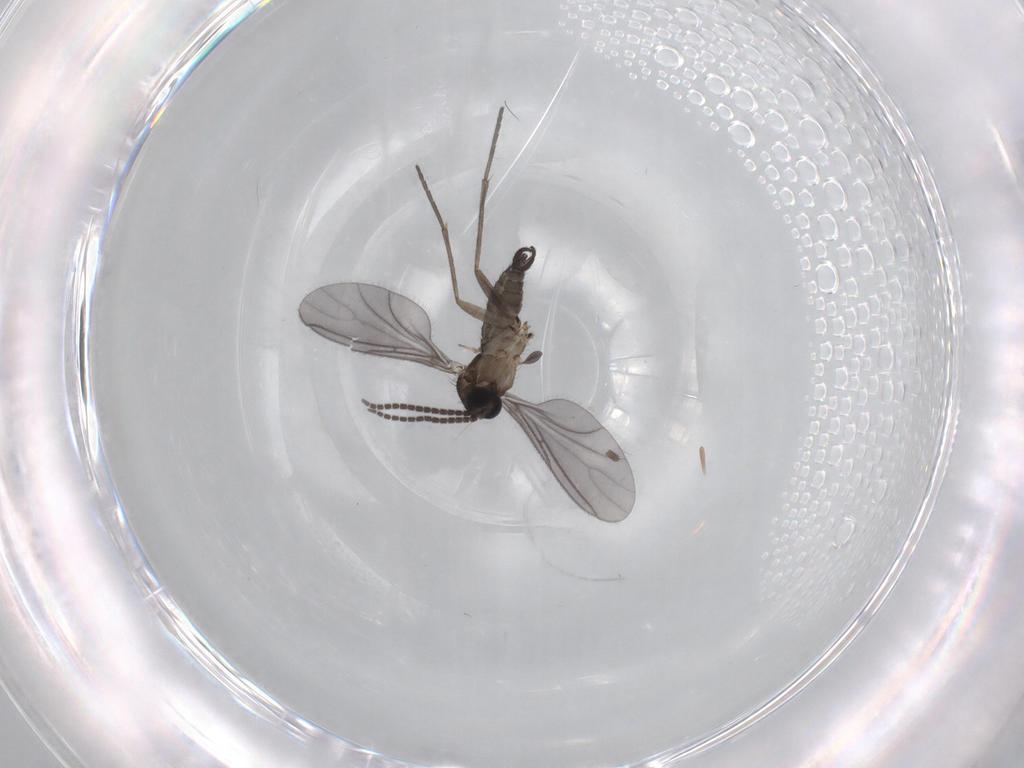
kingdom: Animalia
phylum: Arthropoda
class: Insecta
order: Diptera
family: Sciaridae
